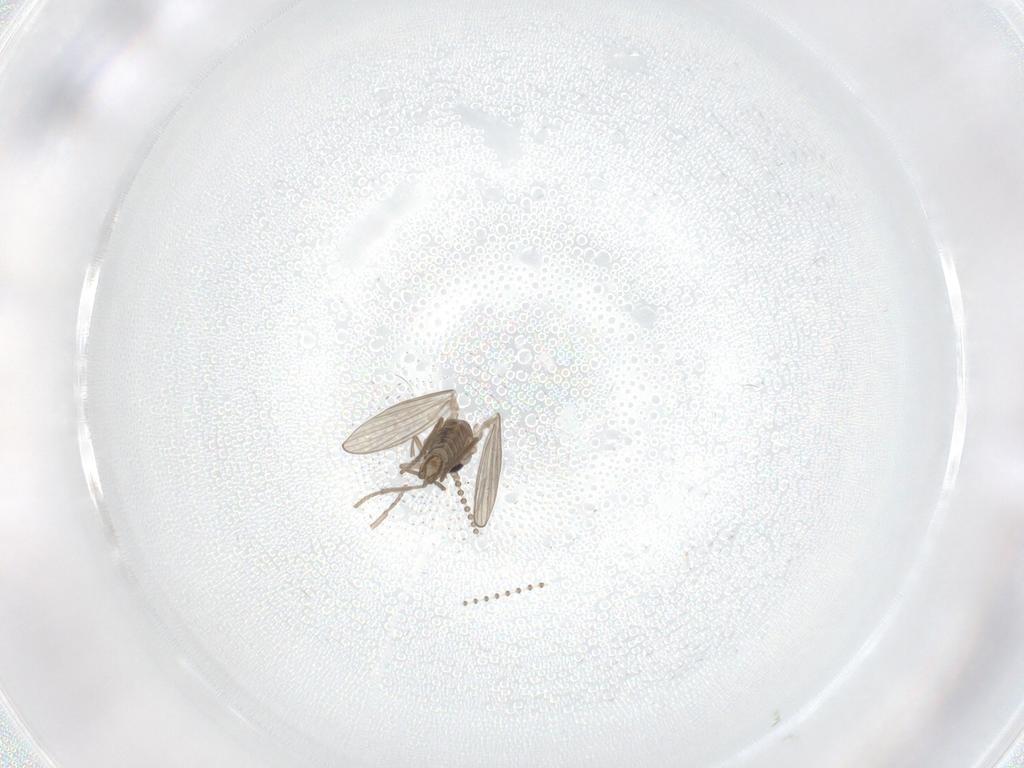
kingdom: Animalia
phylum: Arthropoda
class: Insecta
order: Diptera
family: Psychodidae
